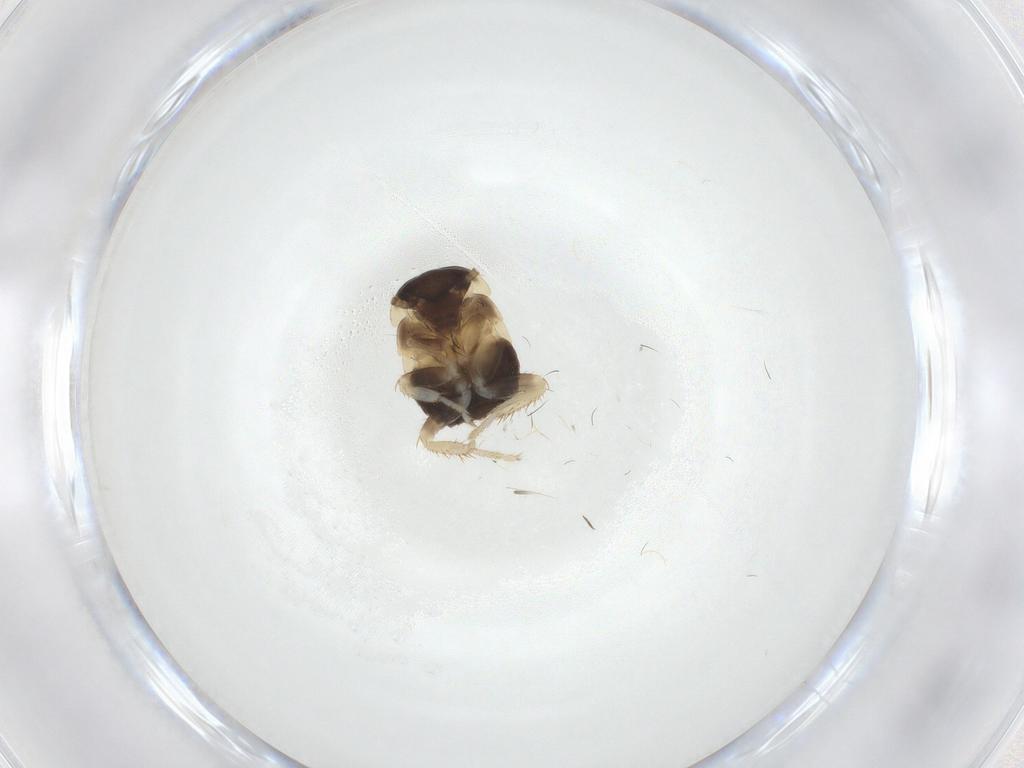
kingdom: Animalia
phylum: Arthropoda
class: Insecta
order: Blattodea
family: Ectobiidae
